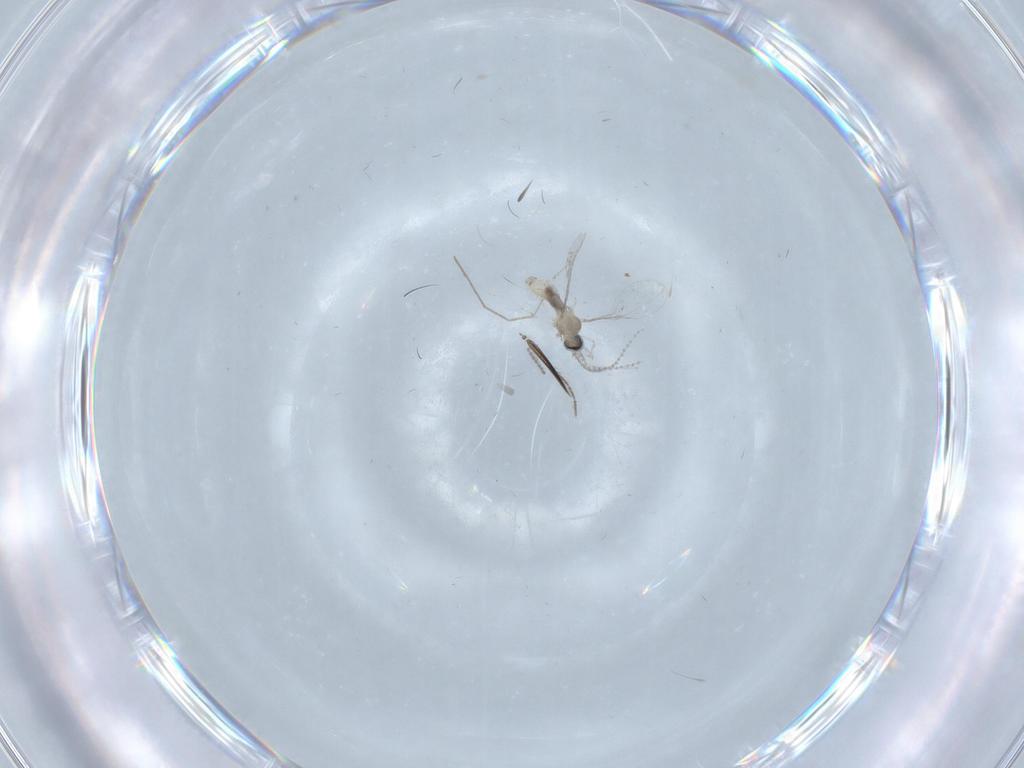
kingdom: Animalia
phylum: Arthropoda
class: Insecta
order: Diptera
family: Cecidomyiidae
